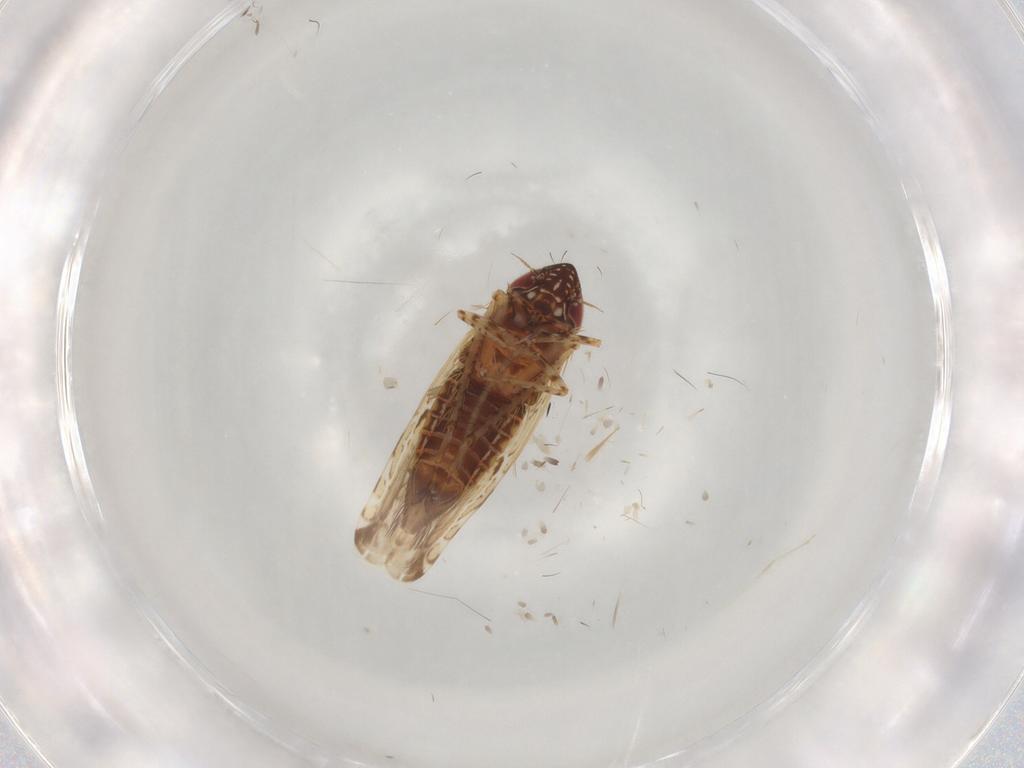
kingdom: Animalia
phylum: Arthropoda
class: Insecta
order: Hemiptera
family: Cicadellidae
